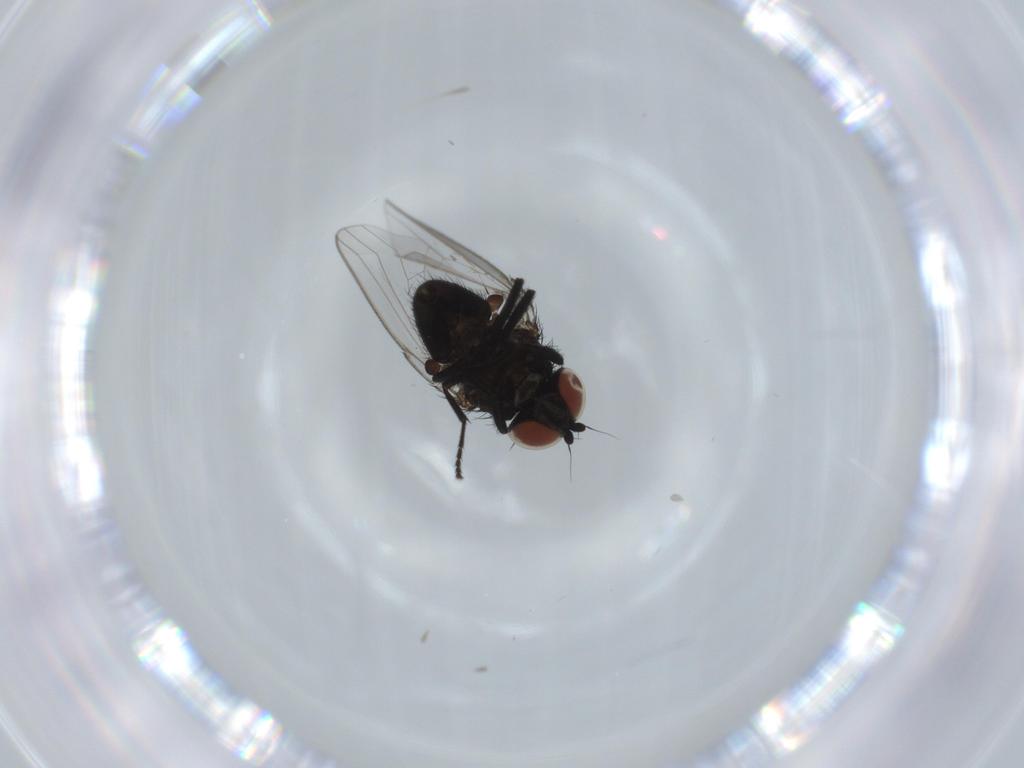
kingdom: Animalia
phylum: Arthropoda
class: Insecta
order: Diptera
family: Milichiidae
